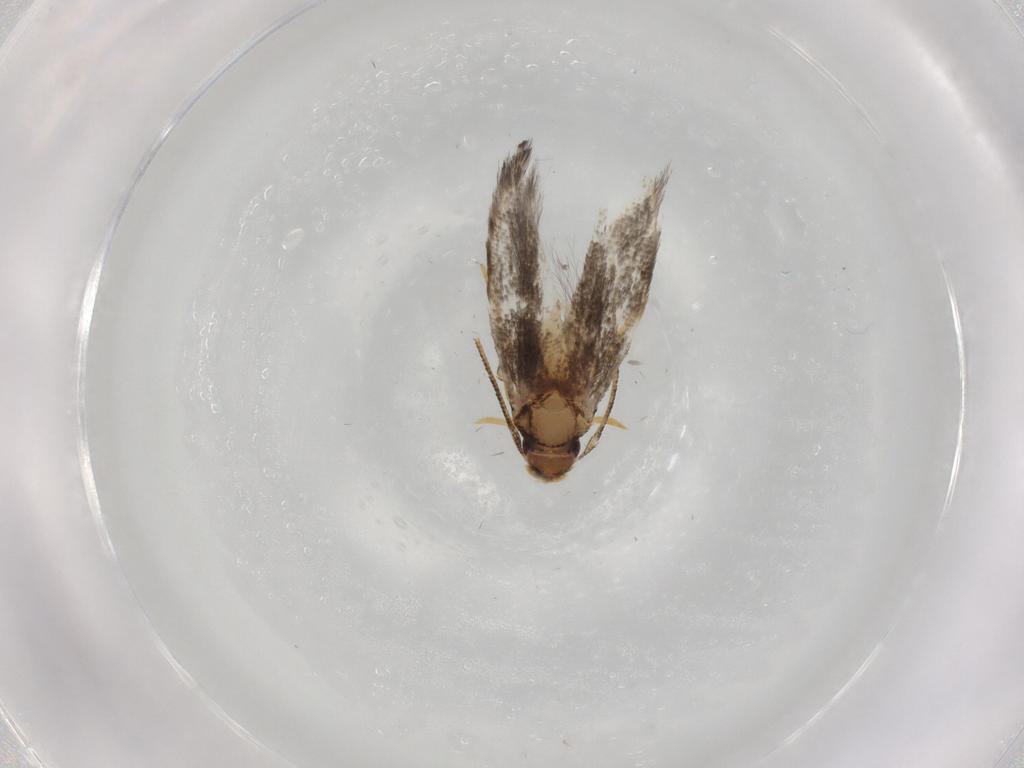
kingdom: Animalia
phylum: Arthropoda
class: Insecta
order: Lepidoptera
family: Gelechiidae
